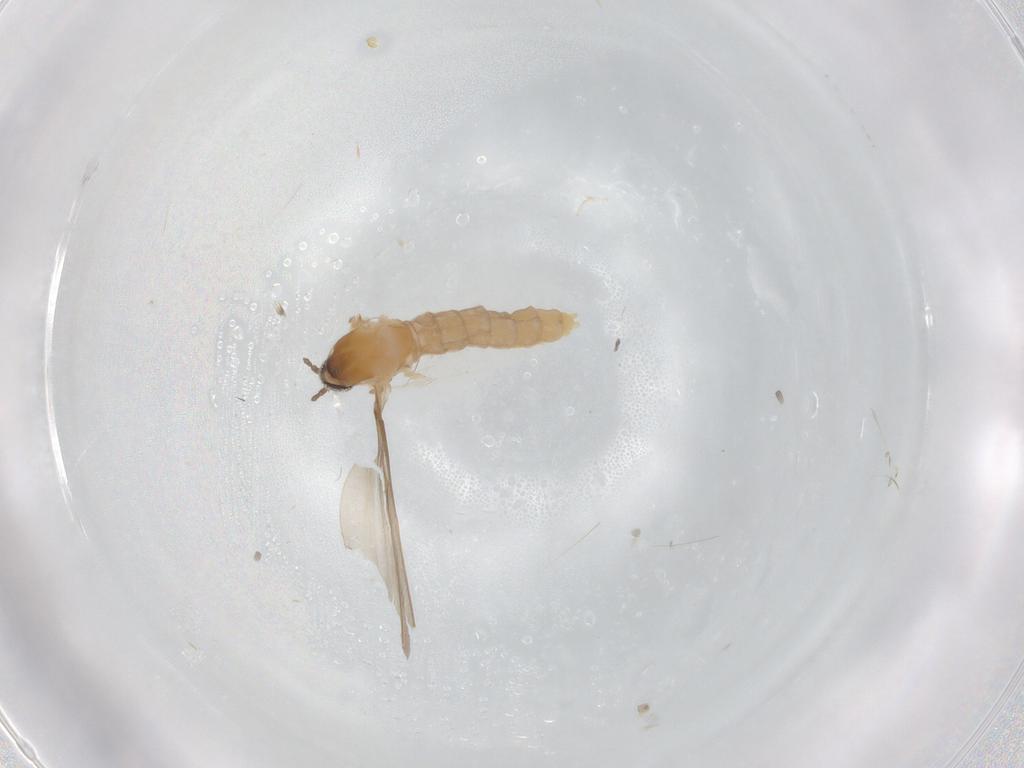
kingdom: Animalia
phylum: Arthropoda
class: Insecta
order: Diptera
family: Cecidomyiidae
